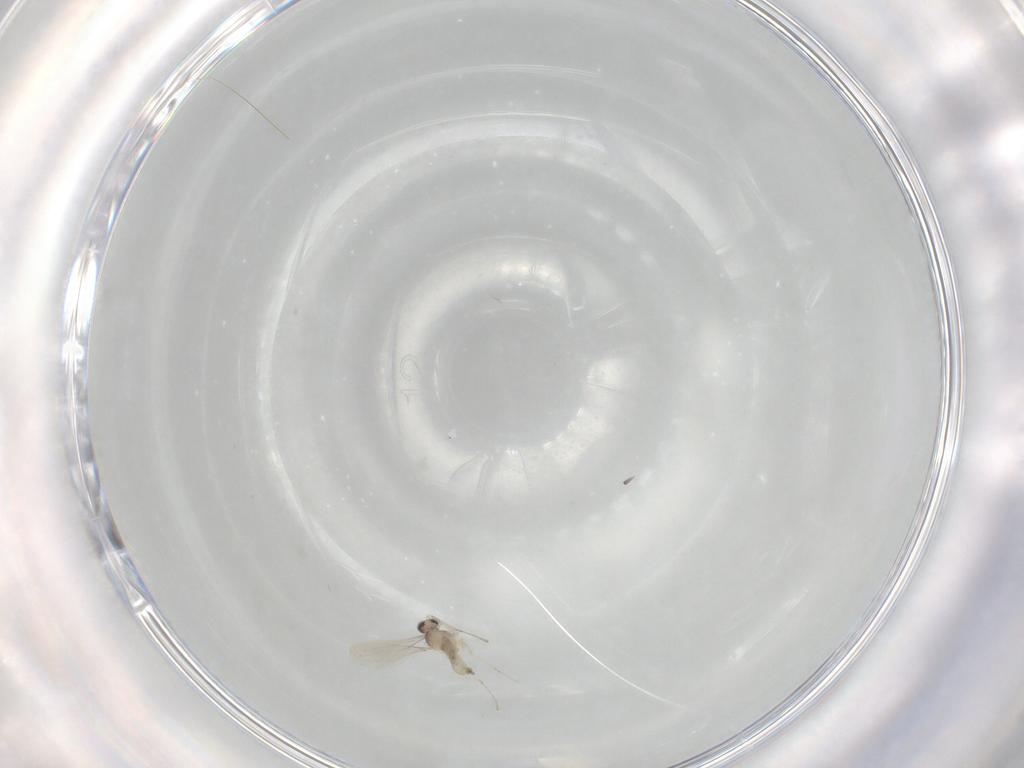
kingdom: Animalia
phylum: Arthropoda
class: Insecta
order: Diptera
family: Cecidomyiidae
